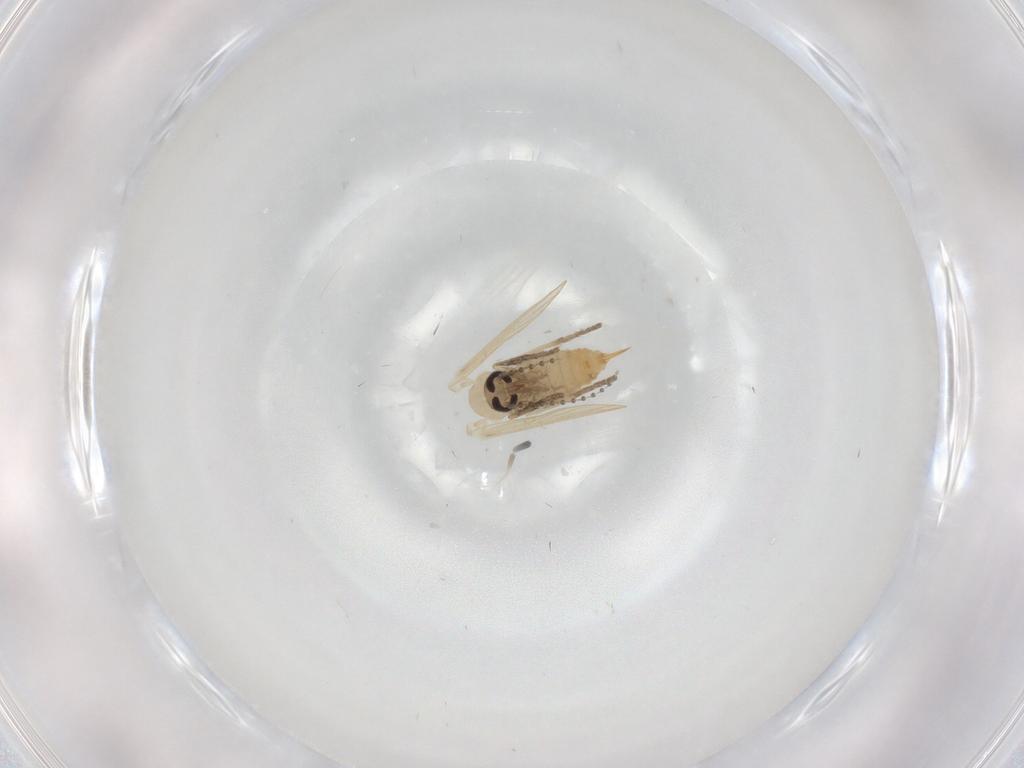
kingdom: Animalia
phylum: Arthropoda
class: Insecta
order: Diptera
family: Psychodidae
